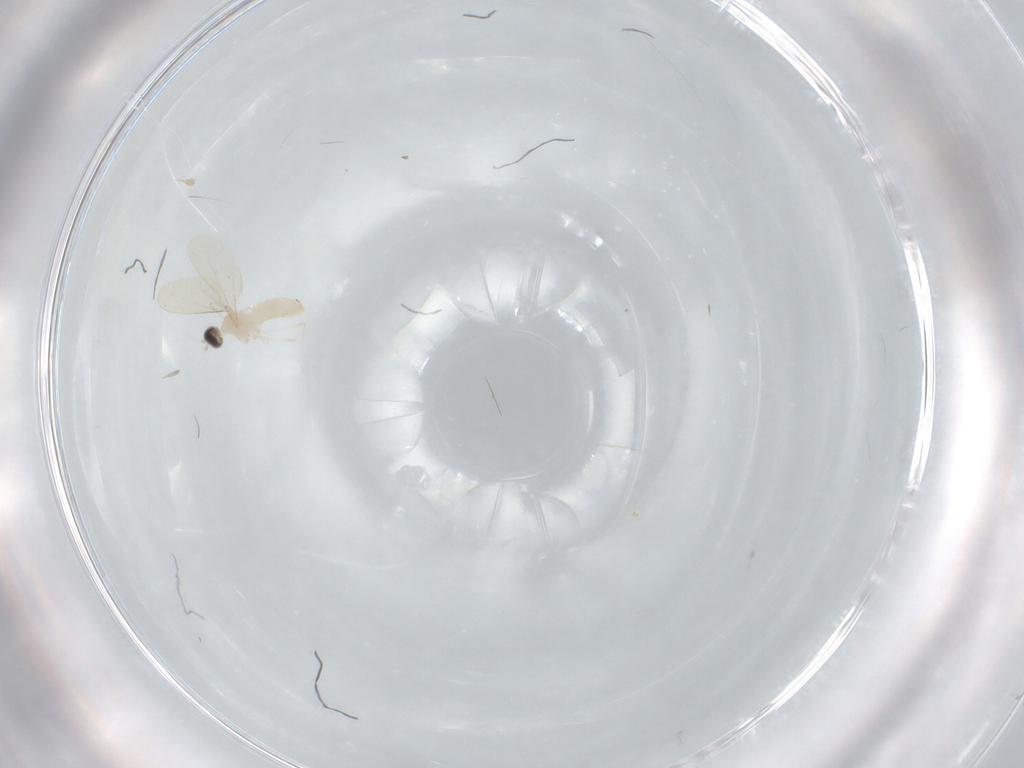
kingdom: Animalia
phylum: Arthropoda
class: Insecta
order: Diptera
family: Cecidomyiidae
